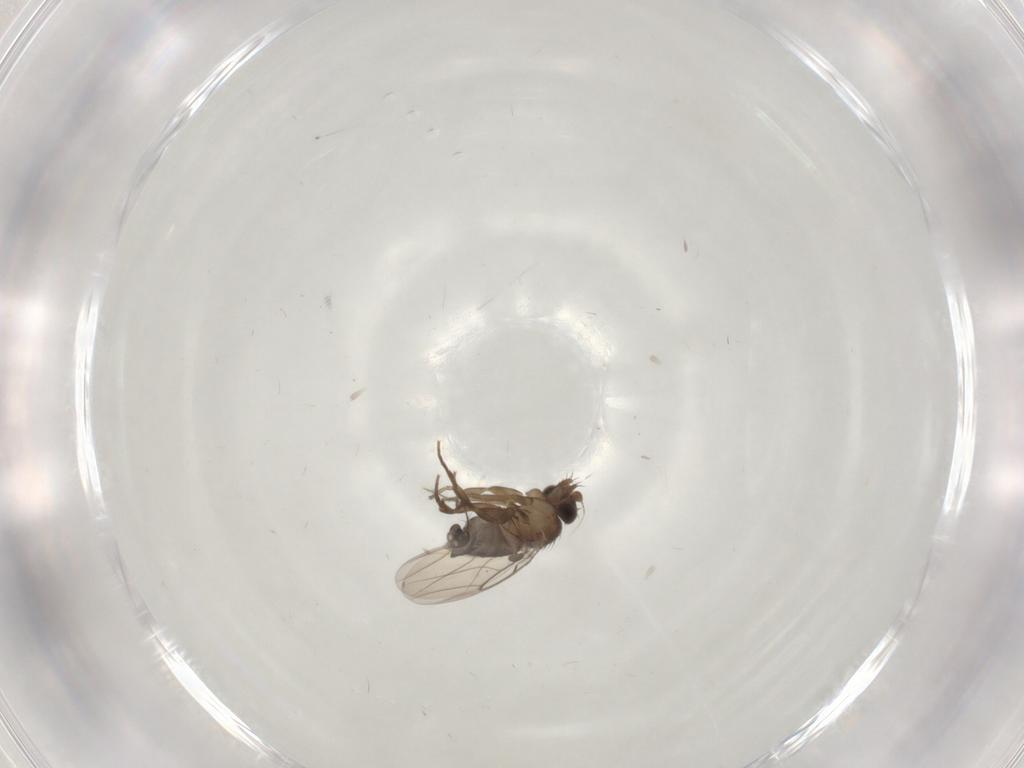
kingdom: Animalia
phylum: Arthropoda
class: Insecta
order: Diptera
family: Phoridae
